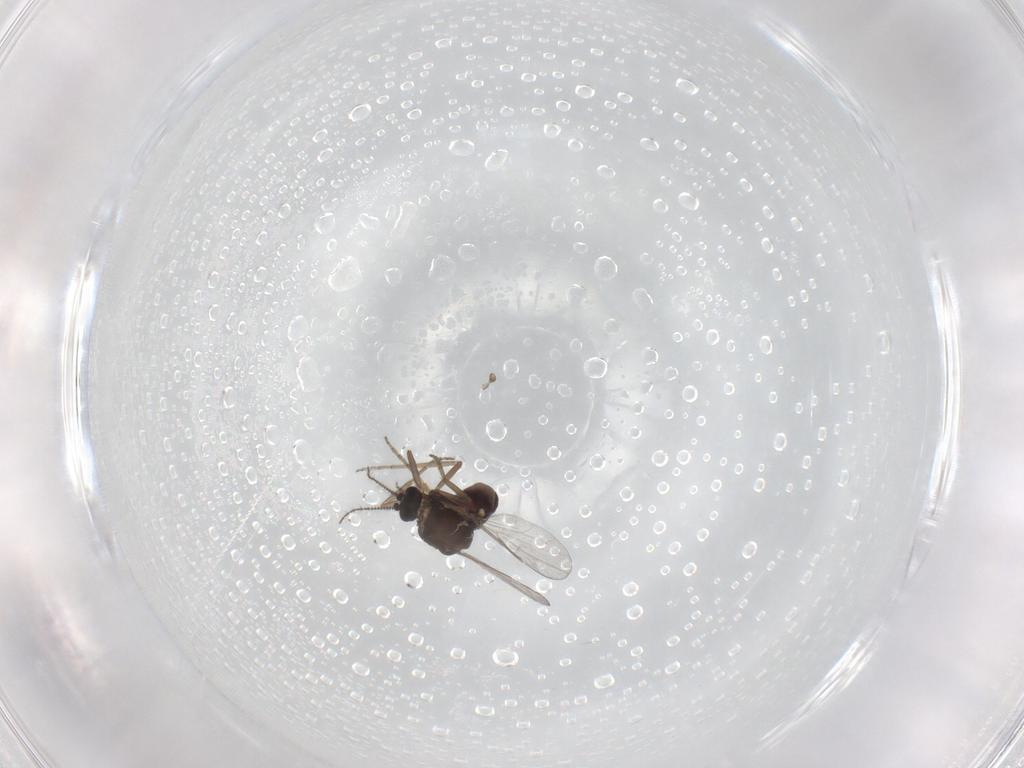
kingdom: Animalia
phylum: Arthropoda
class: Insecta
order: Diptera
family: Ceratopogonidae
